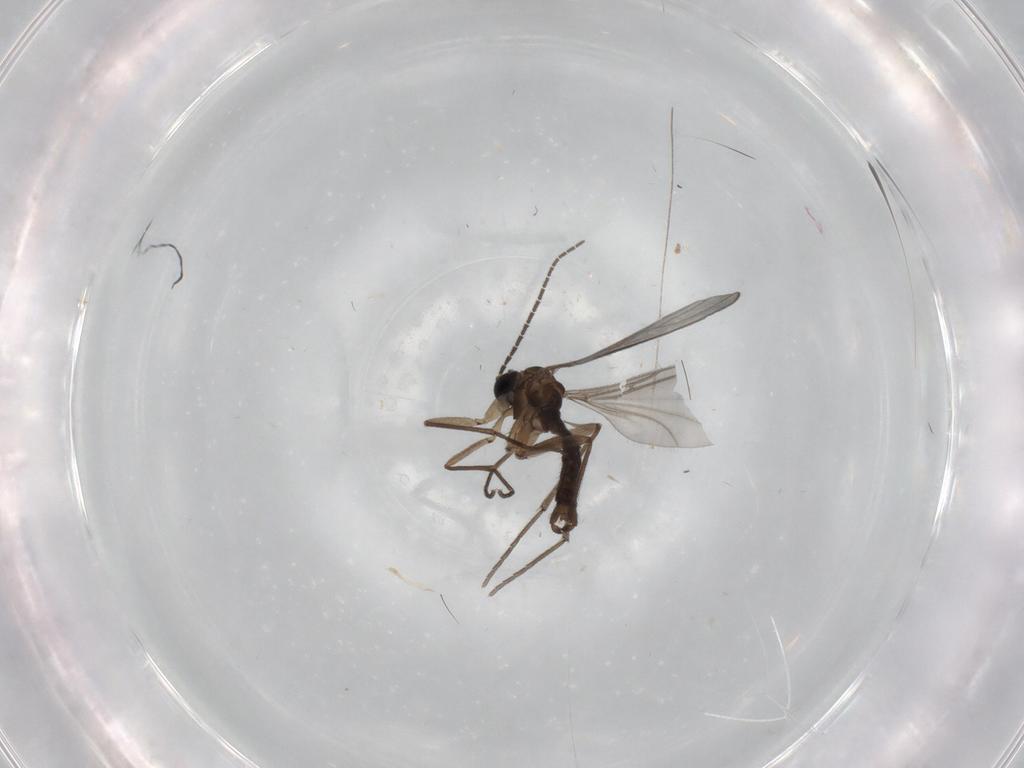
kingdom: Animalia
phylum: Arthropoda
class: Insecta
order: Diptera
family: Sciaridae
